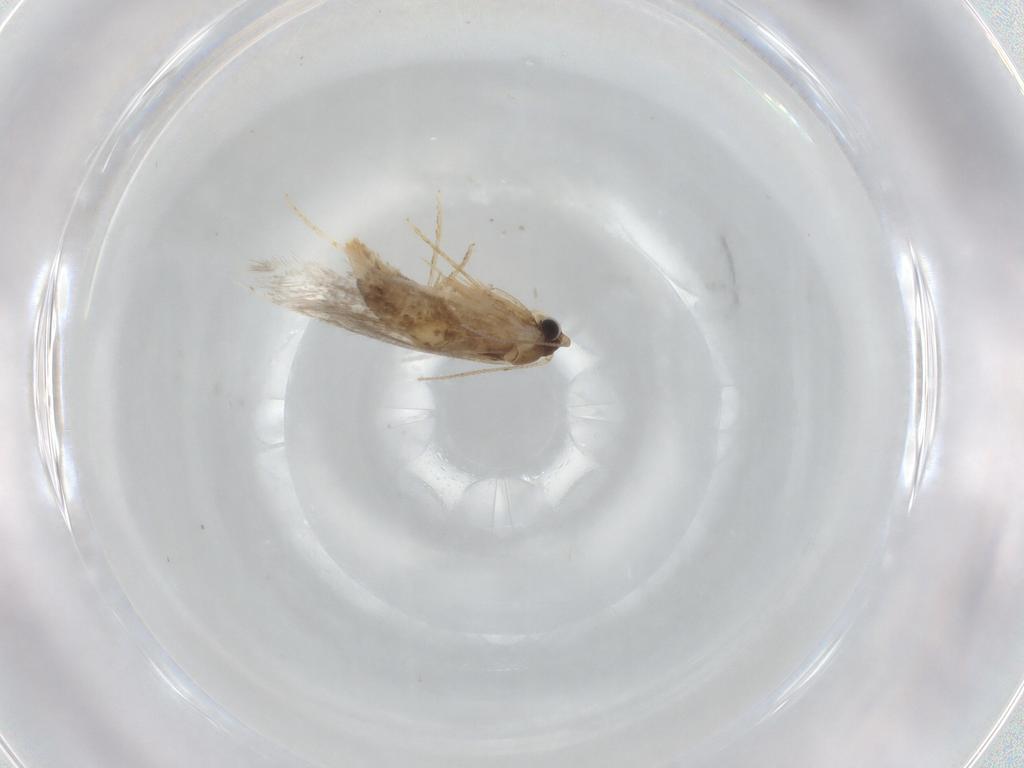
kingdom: Animalia
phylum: Arthropoda
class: Insecta
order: Lepidoptera
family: Tineidae
